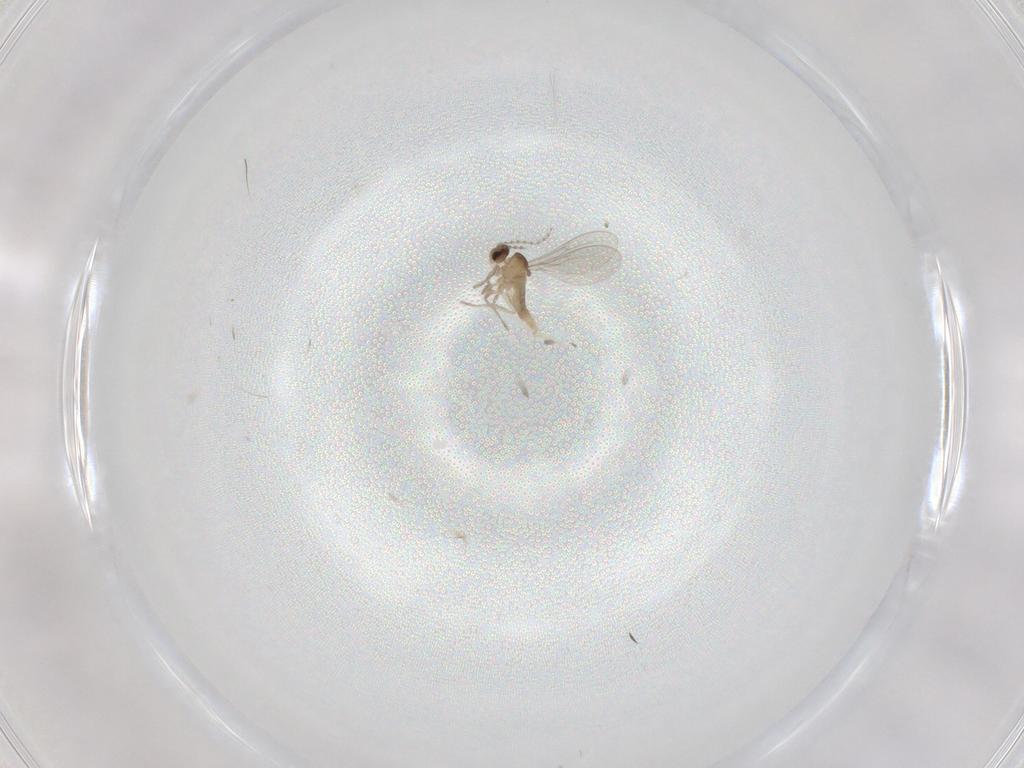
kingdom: Animalia
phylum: Arthropoda
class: Insecta
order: Diptera
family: Cecidomyiidae
